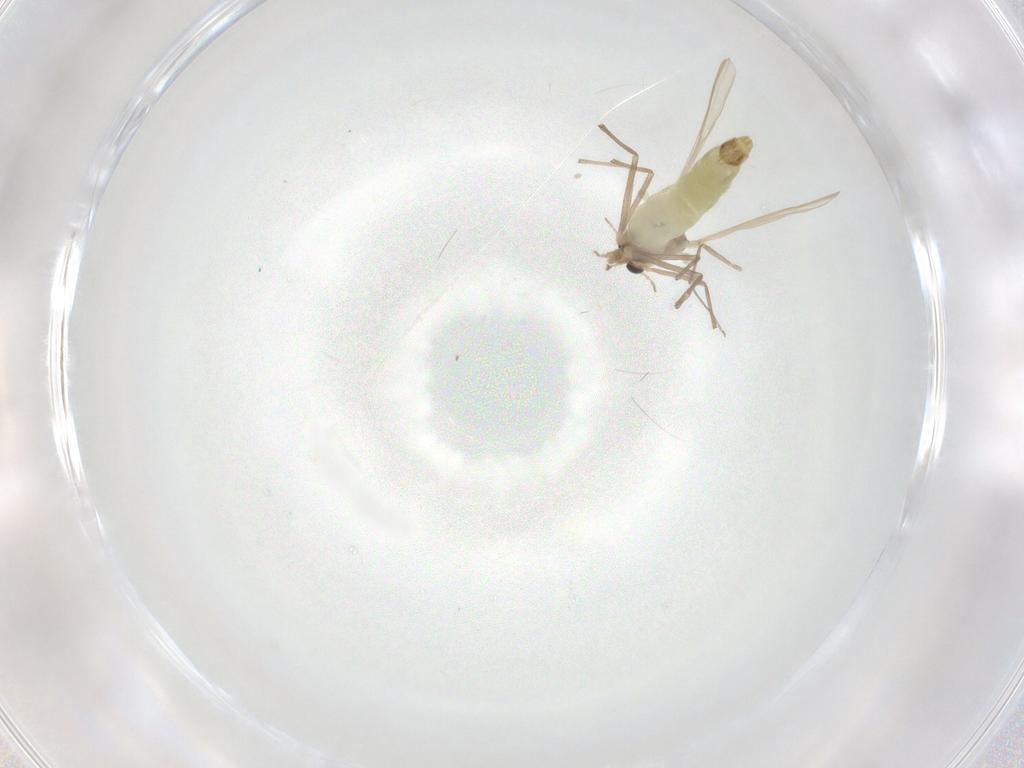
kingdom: Animalia
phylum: Arthropoda
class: Insecta
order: Diptera
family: Chironomidae
